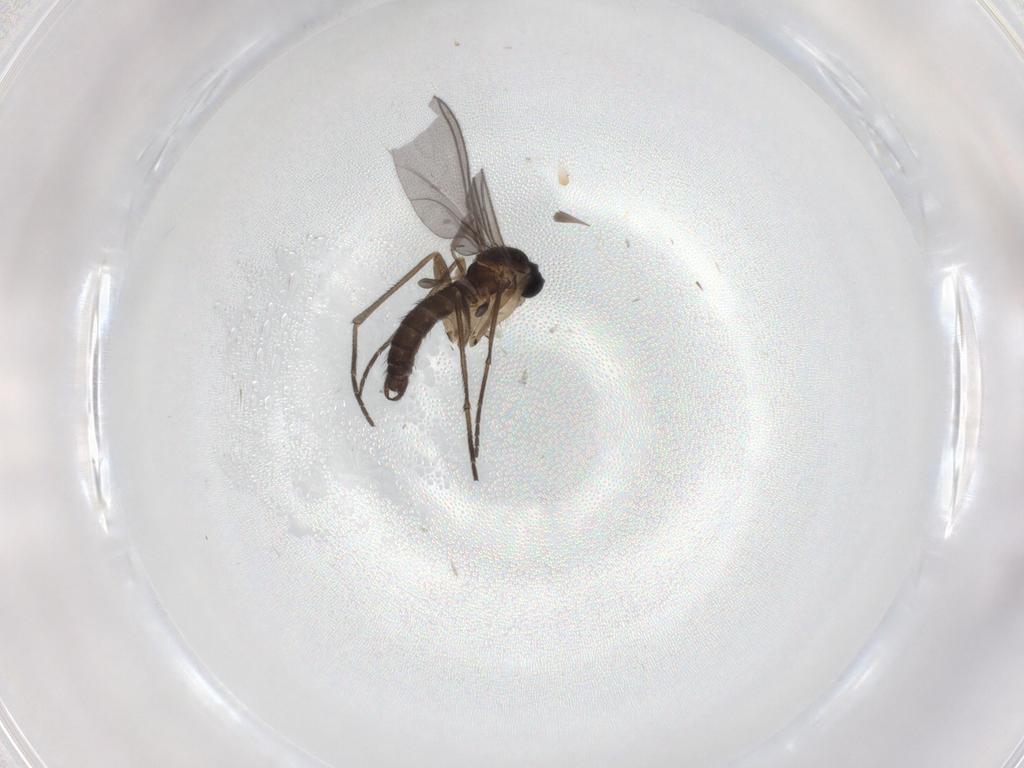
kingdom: Animalia
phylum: Arthropoda
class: Insecta
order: Diptera
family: Sciaridae
